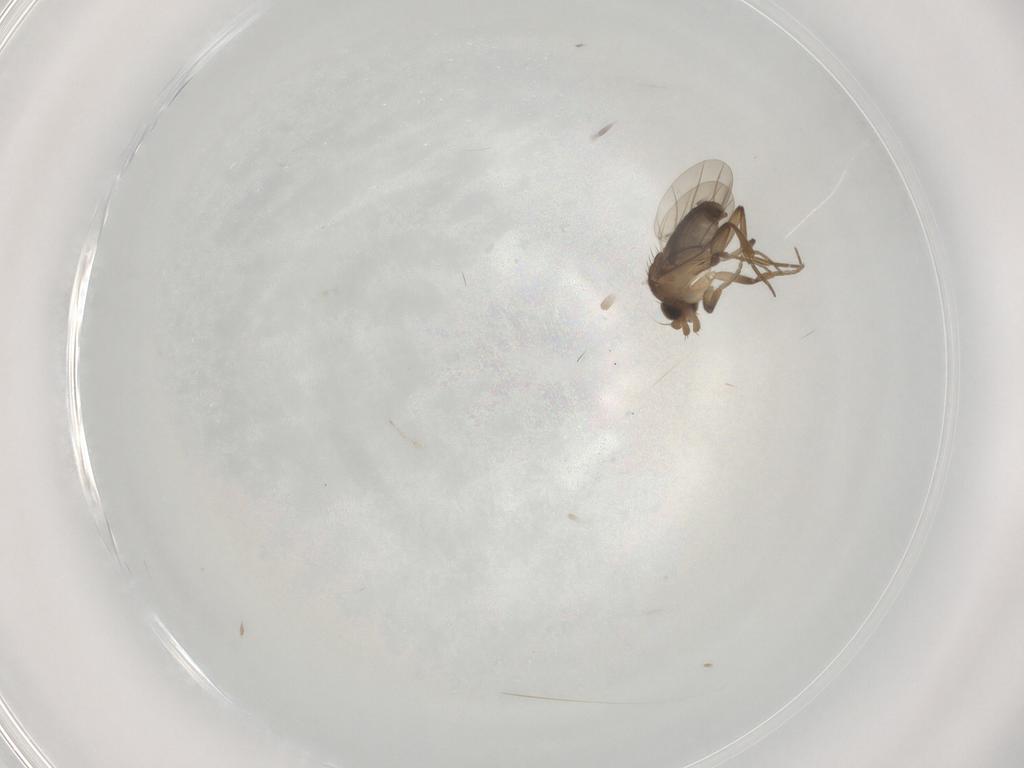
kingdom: Animalia
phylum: Arthropoda
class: Insecta
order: Diptera
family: Phoridae
